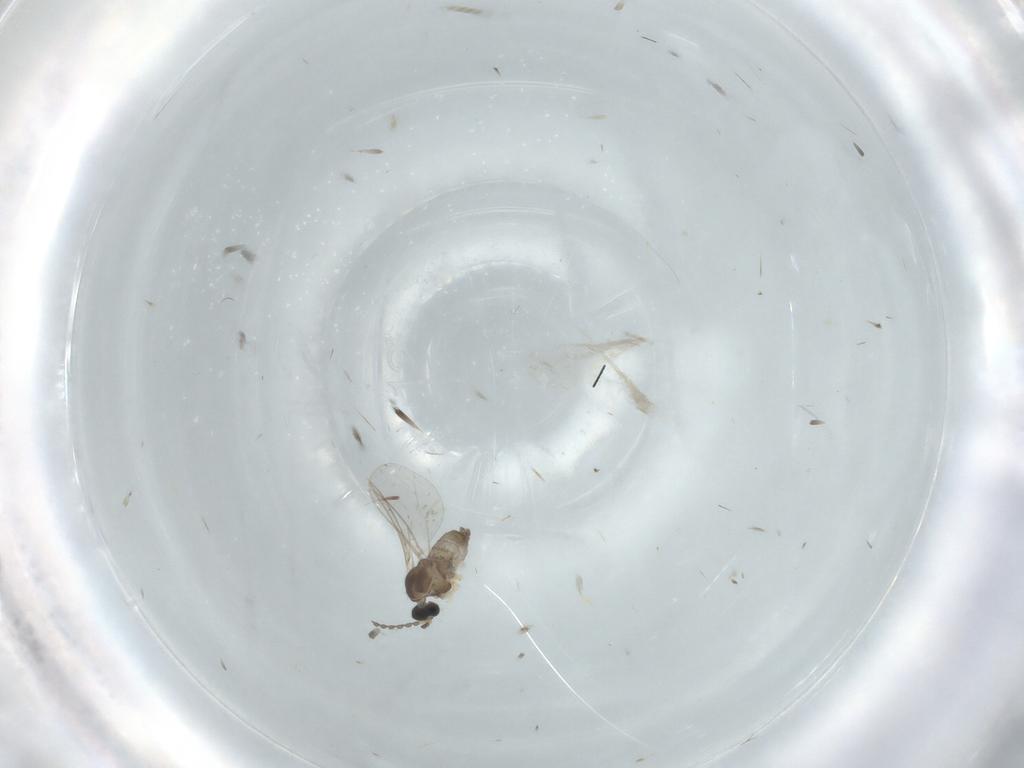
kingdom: Animalia
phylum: Arthropoda
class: Insecta
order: Diptera
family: Cecidomyiidae
